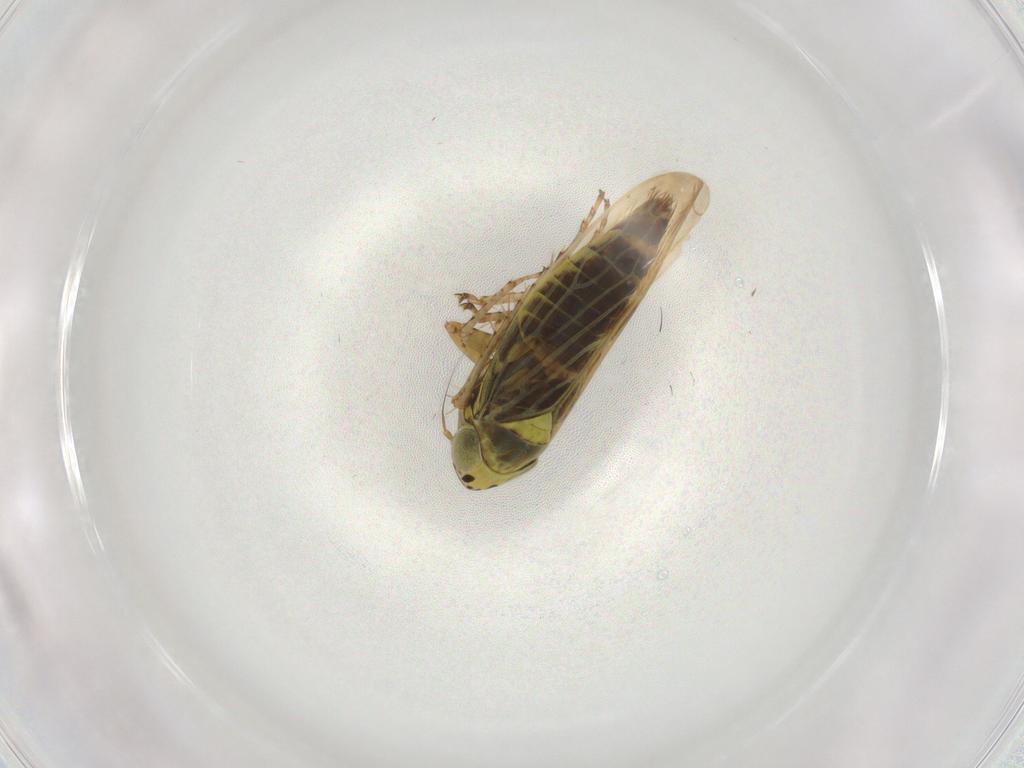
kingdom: Animalia
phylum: Arthropoda
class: Insecta
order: Hemiptera
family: Cicadellidae
